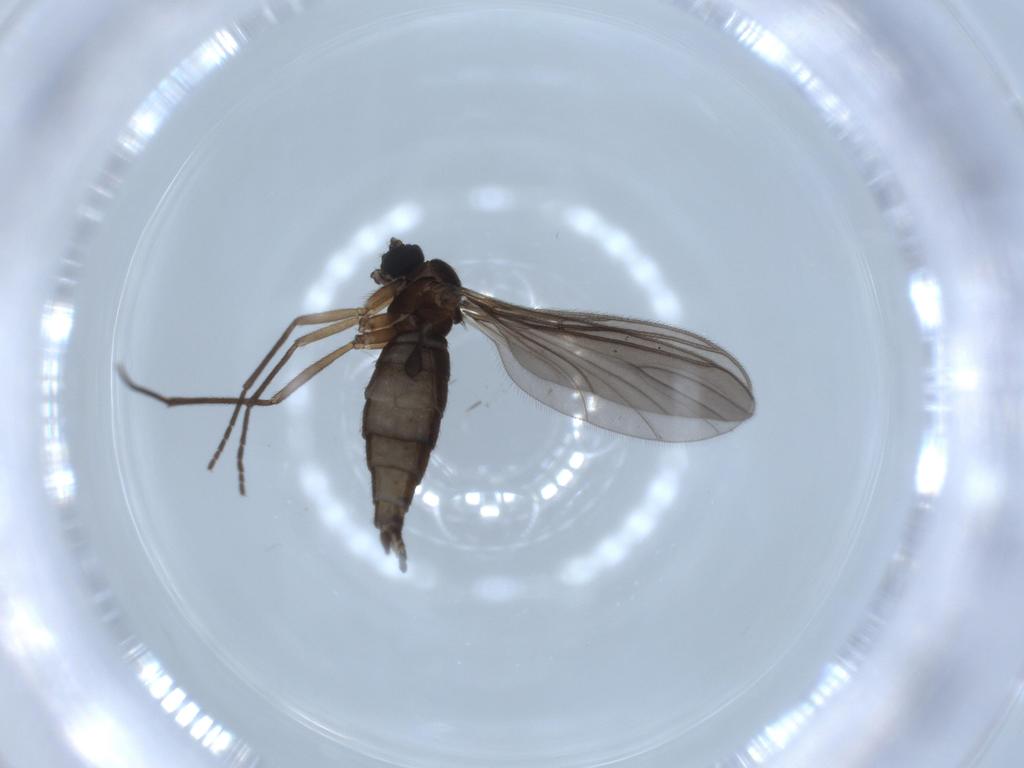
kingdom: Animalia
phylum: Arthropoda
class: Insecta
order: Diptera
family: Sciaridae
